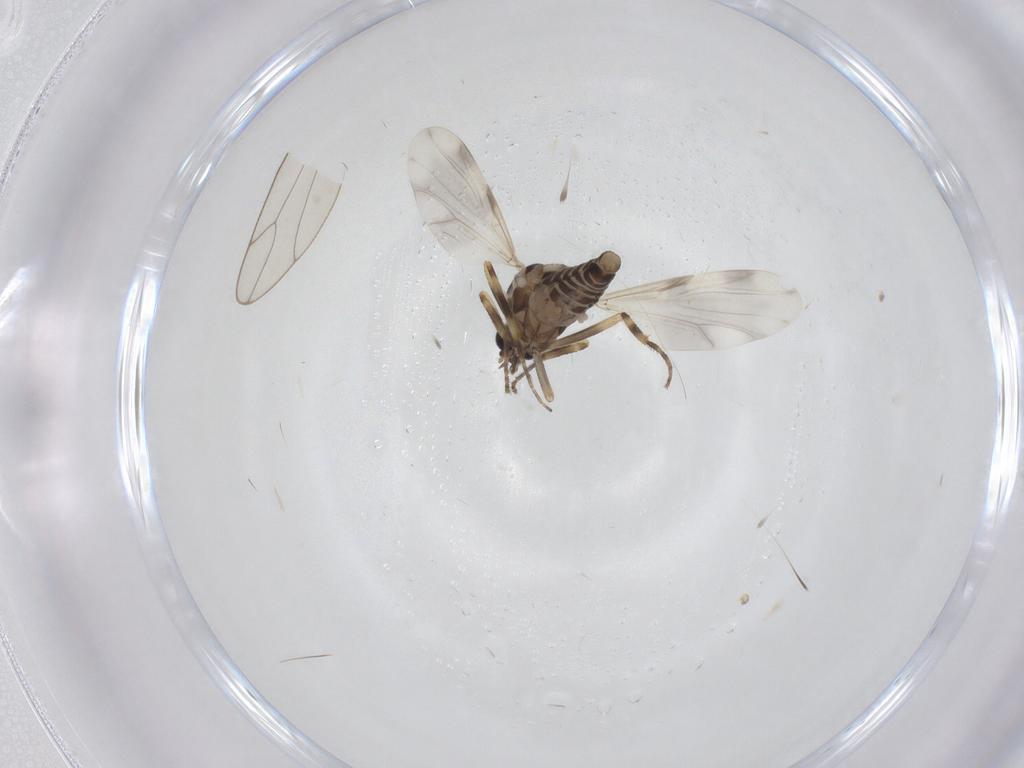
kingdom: Animalia
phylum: Arthropoda
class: Insecta
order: Diptera
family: Ceratopogonidae
